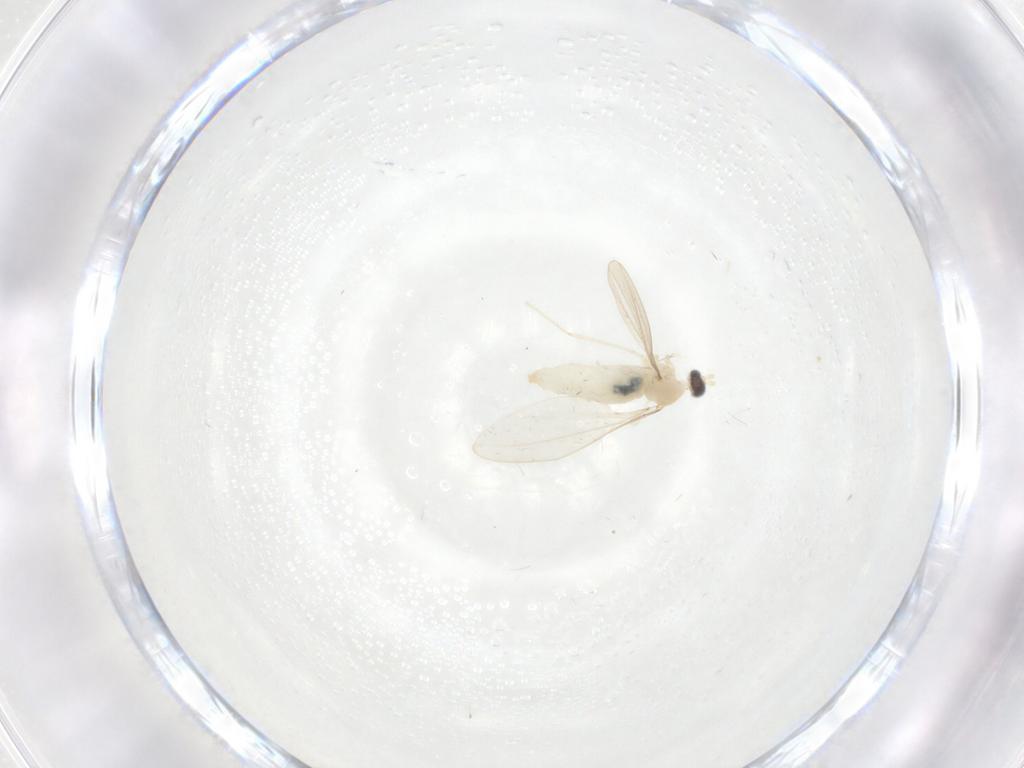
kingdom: Animalia
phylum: Arthropoda
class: Insecta
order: Diptera
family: Cecidomyiidae
